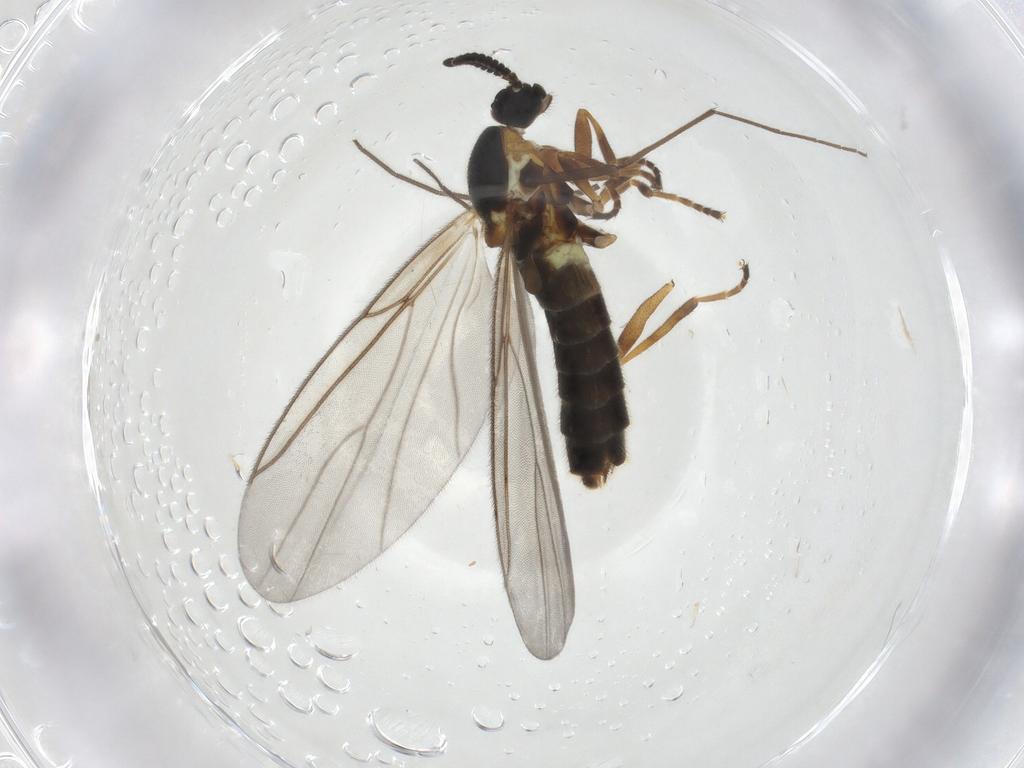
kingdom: Animalia
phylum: Arthropoda
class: Insecta
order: Diptera
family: Scatopsidae
